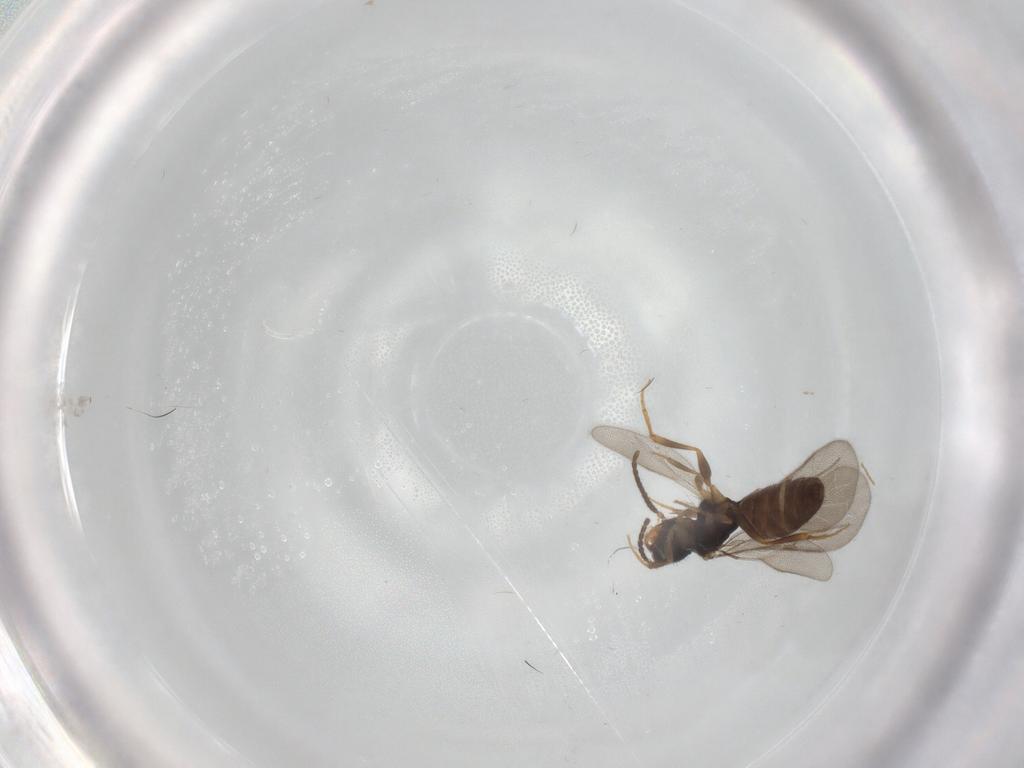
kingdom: Animalia
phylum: Arthropoda
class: Insecta
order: Hymenoptera
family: Bethylidae
